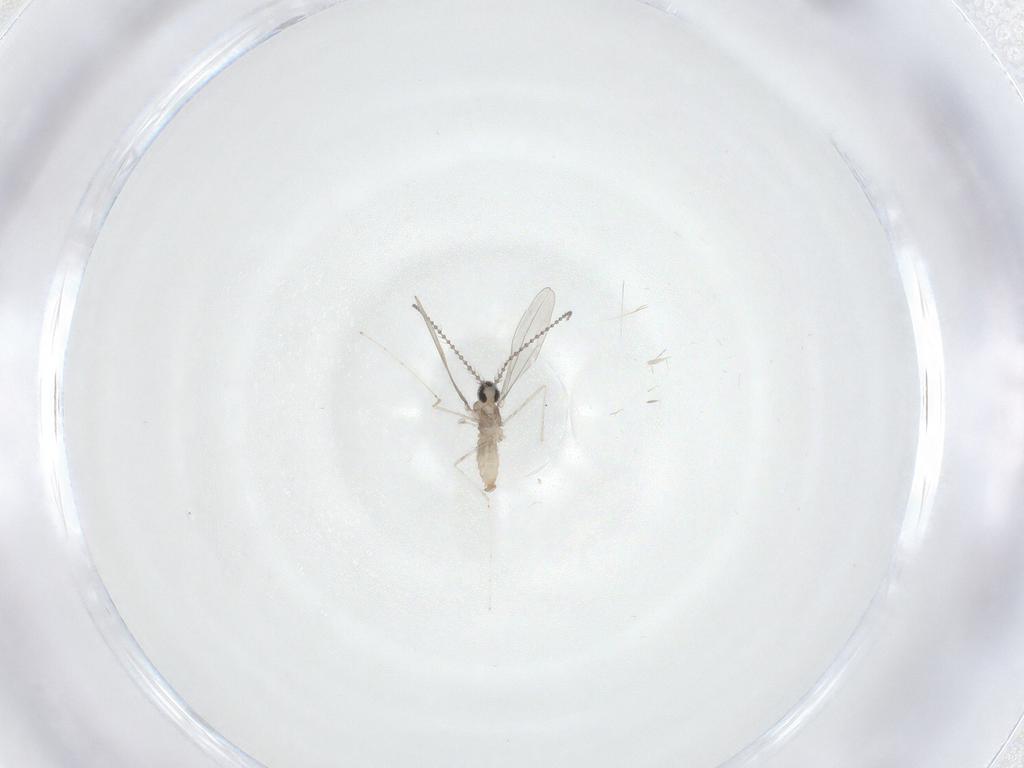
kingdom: Animalia
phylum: Arthropoda
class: Insecta
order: Diptera
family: Cecidomyiidae
